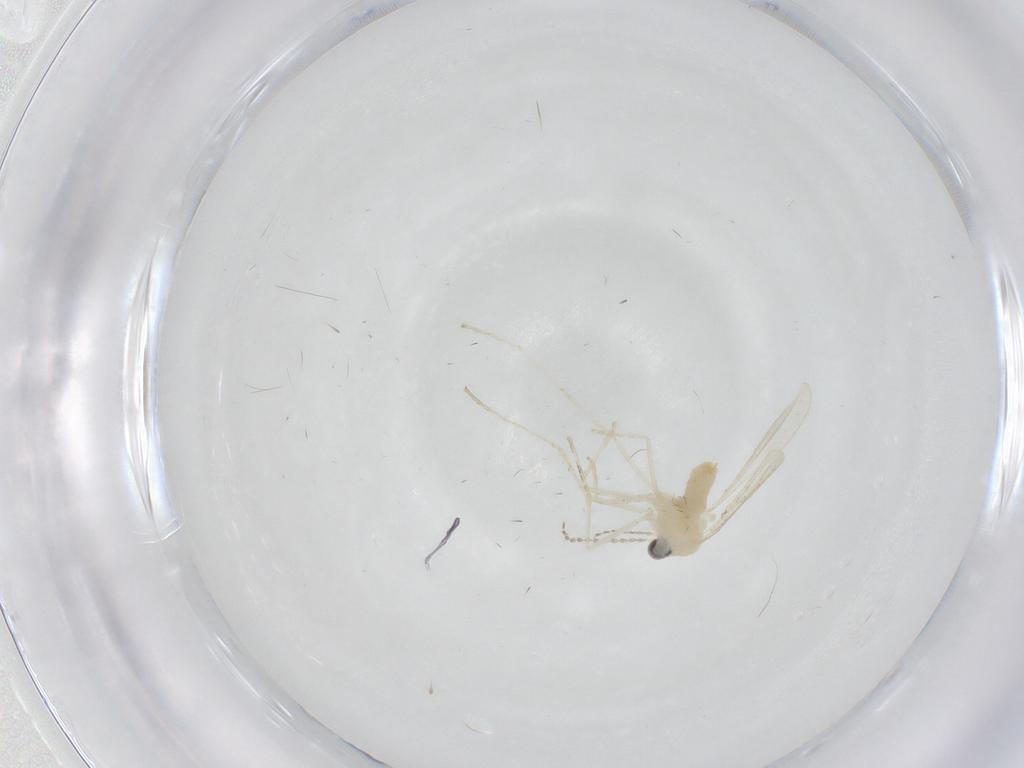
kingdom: Animalia
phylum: Arthropoda
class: Insecta
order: Diptera
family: Cecidomyiidae
